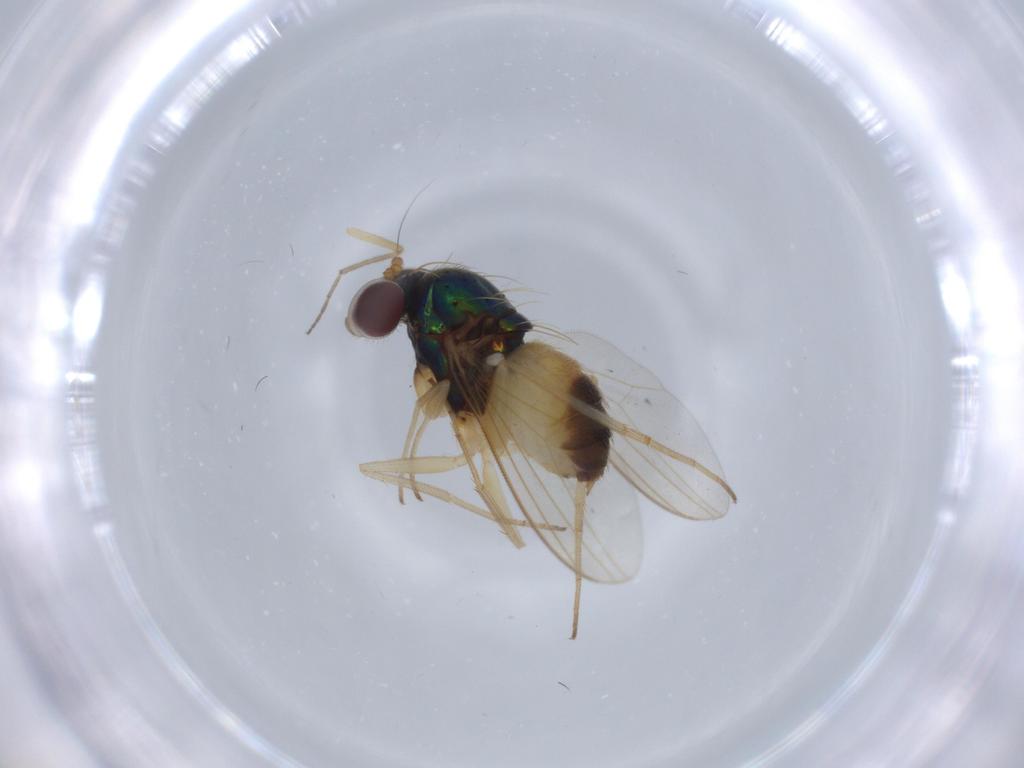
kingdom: Animalia
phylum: Arthropoda
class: Insecta
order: Diptera
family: Dolichopodidae
